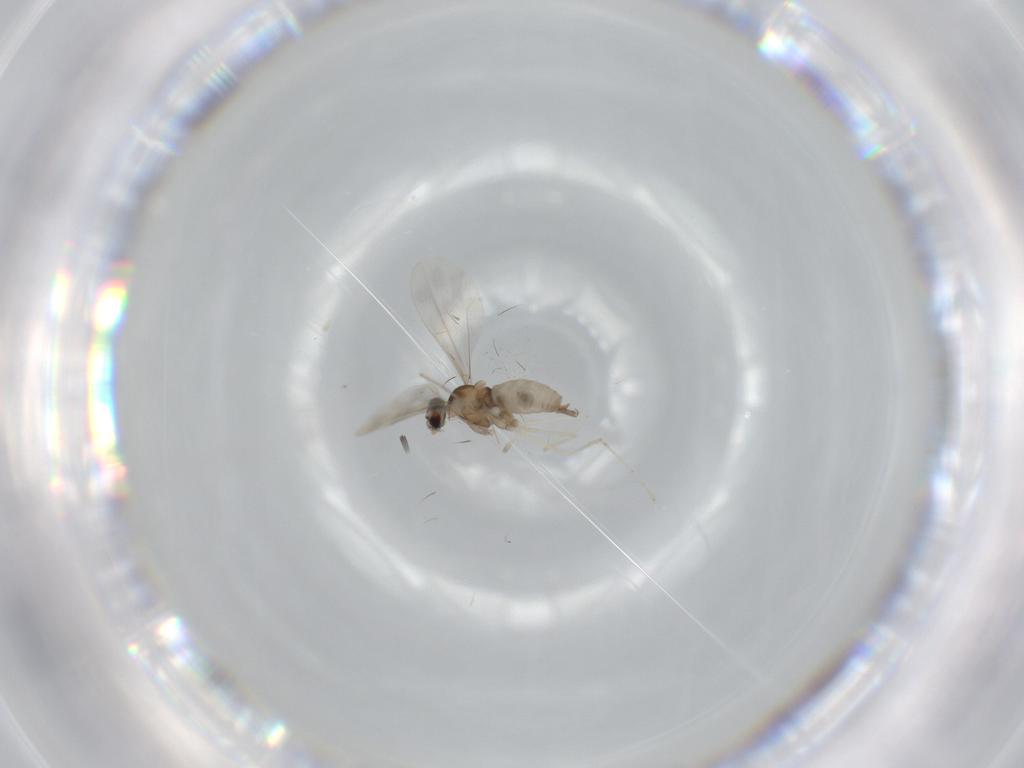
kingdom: Animalia
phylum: Arthropoda
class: Insecta
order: Diptera
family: Cecidomyiidae
